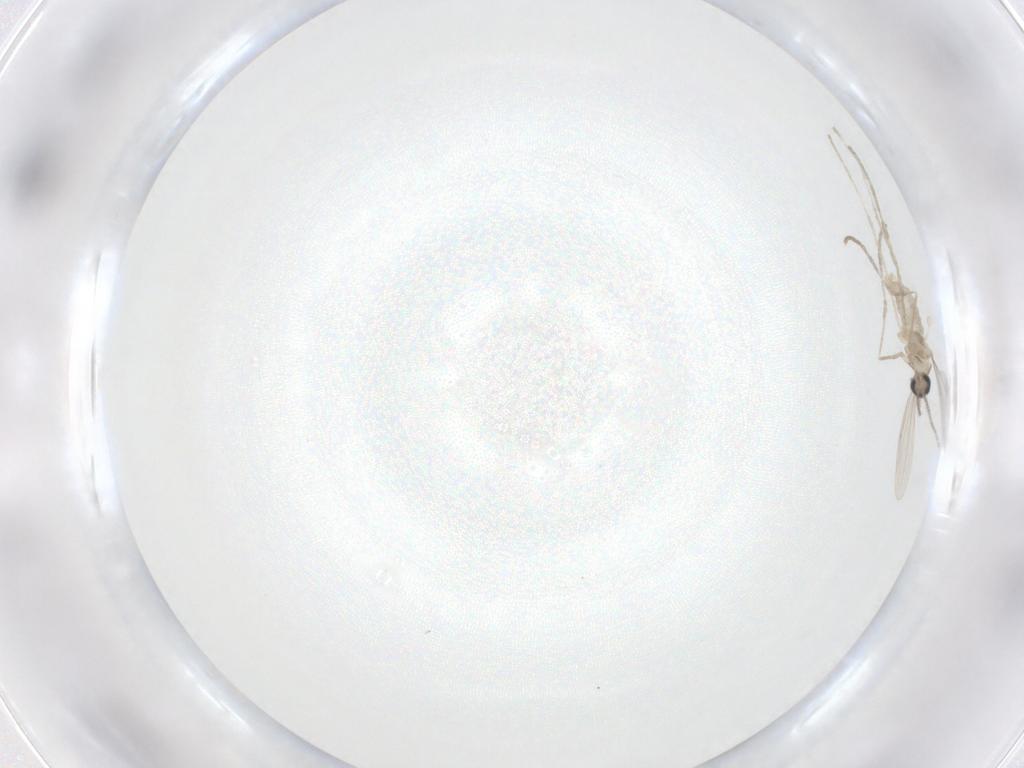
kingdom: Animalia
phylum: Arthropoda
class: Insecta
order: Diptera
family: Cecidomyiidae
